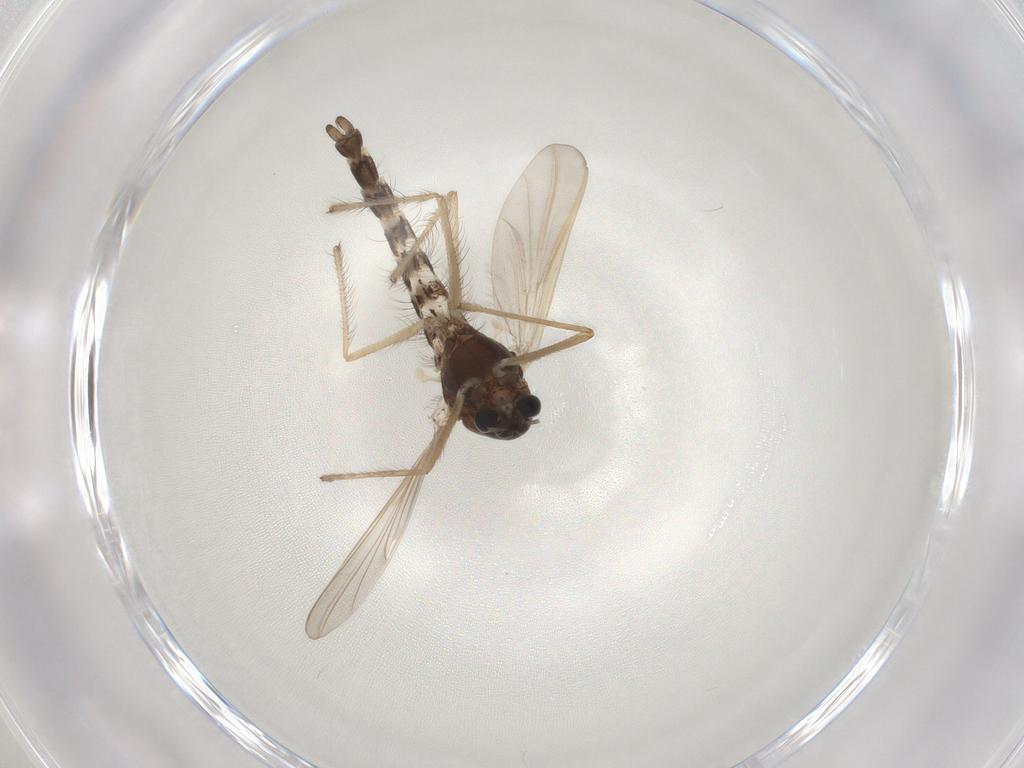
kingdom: Animalia
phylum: Arthropoda
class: Insecta
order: Diptera
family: Chironomidae
